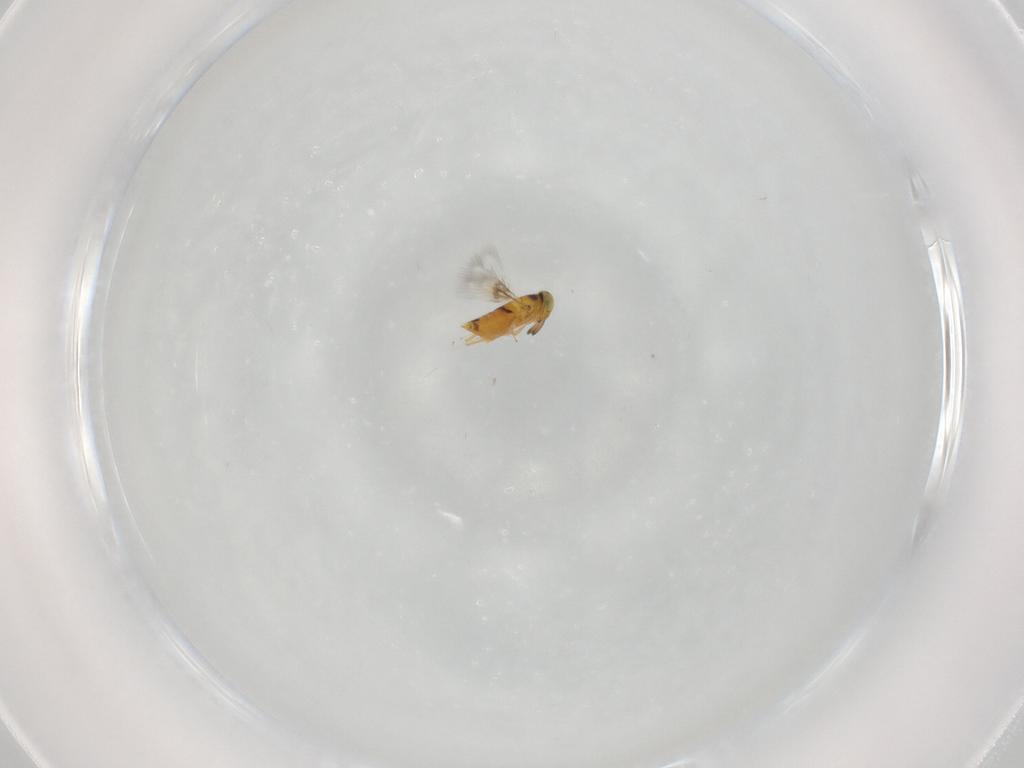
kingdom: Animalia
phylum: Arthropoda
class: Insecta
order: Hymenoptera
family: Signiphoridae
